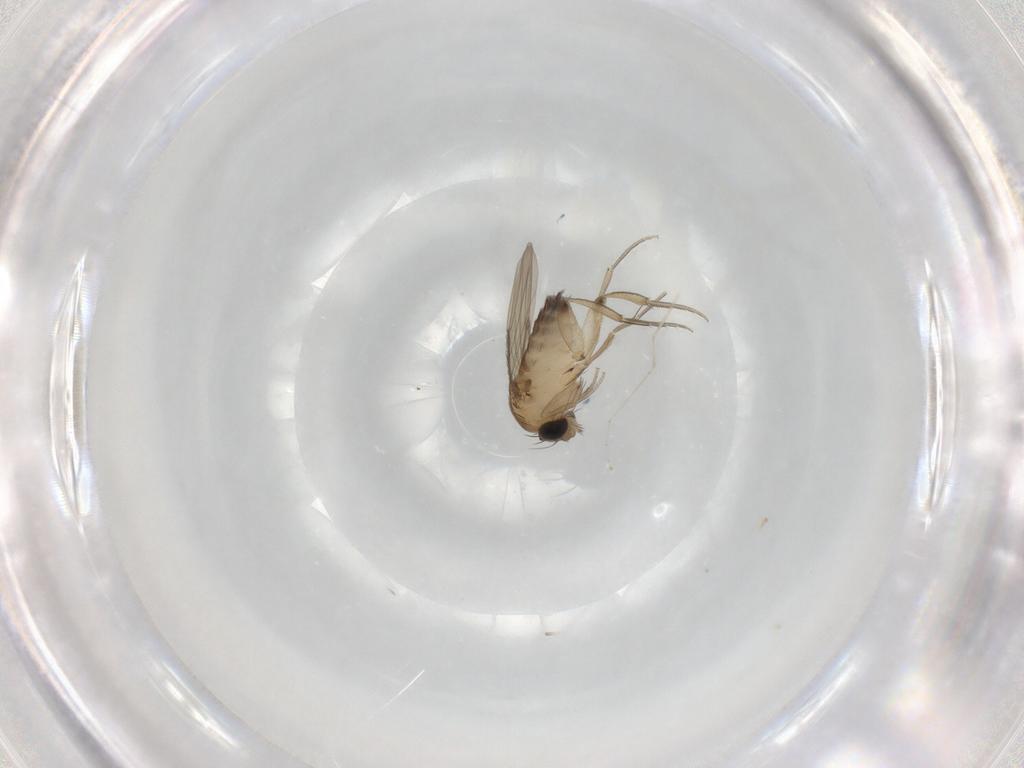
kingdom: Animalia
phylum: Arthropoda
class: Insecta
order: Diptera
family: Phoridae
